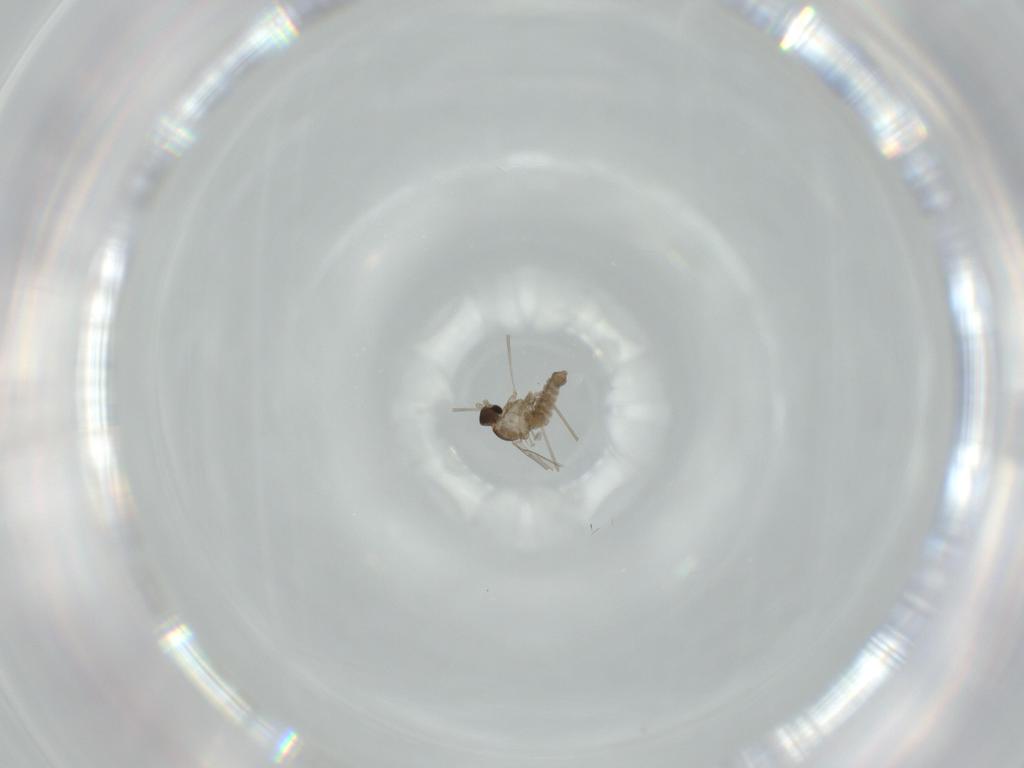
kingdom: Animalia
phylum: Arthropoda
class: Insecta
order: Diptera
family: Cecidomyiidae
